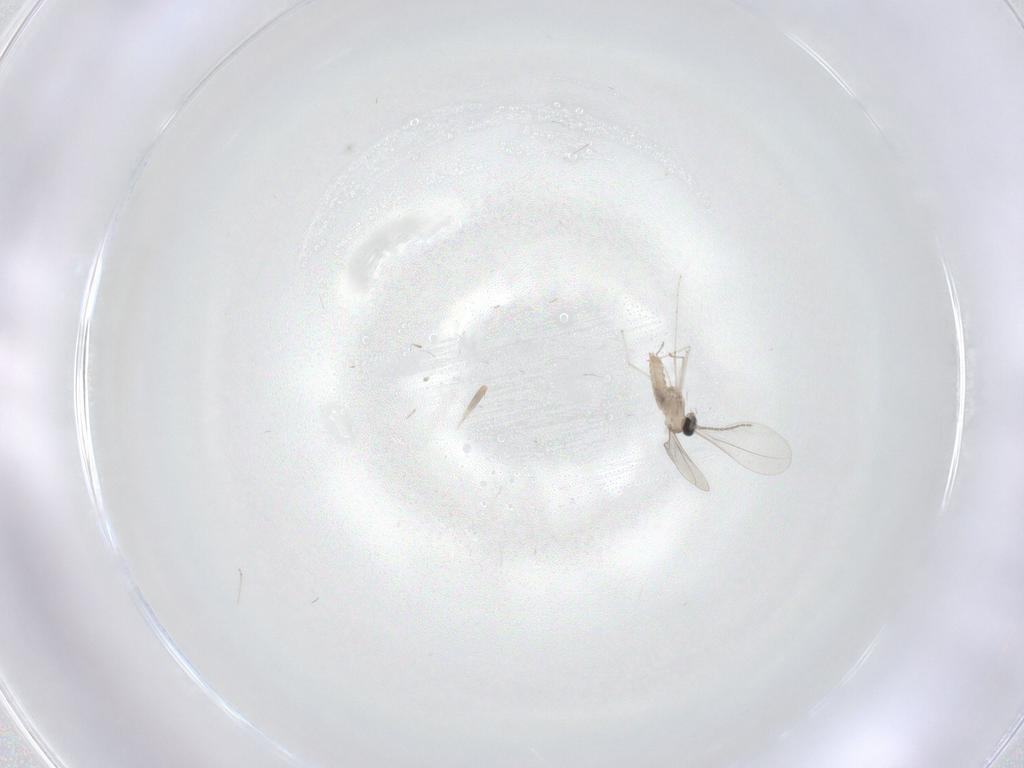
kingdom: Animalia
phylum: Arthropoda
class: Insecta
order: Diptera
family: Cecidomyiidae
